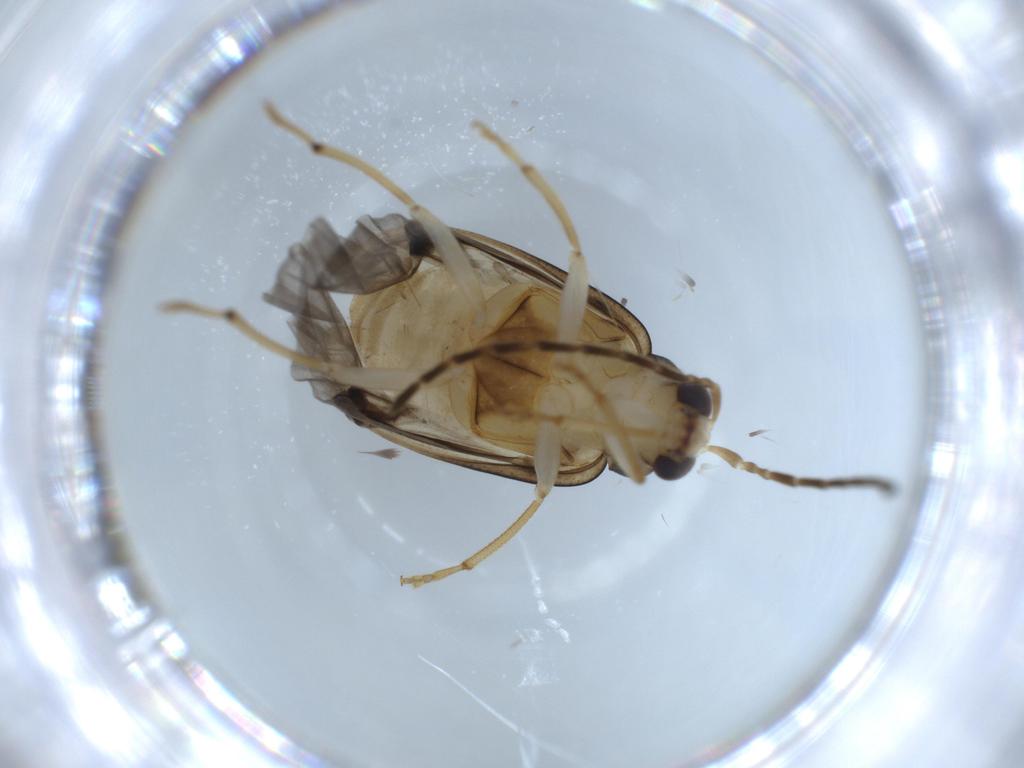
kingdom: Animalia
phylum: Arthropoda
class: Insecta
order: Coleoptera
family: Chrysomelidae
